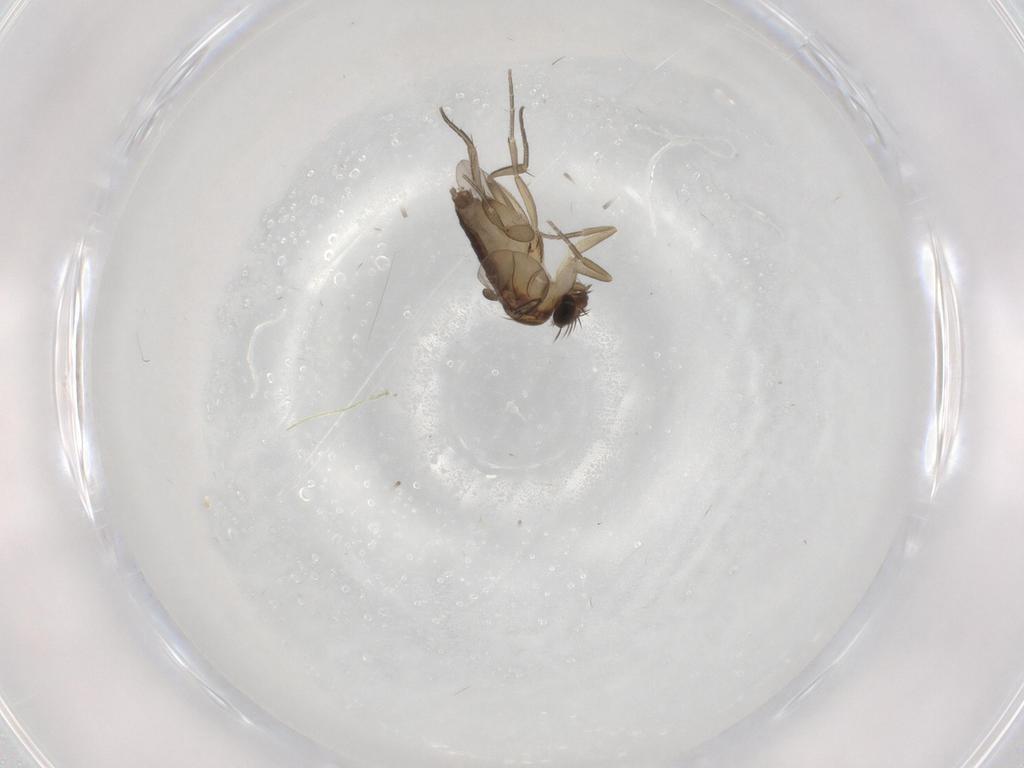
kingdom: Animalia
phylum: Arthropoda
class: Insecta
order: Diptera
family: Phoridae
